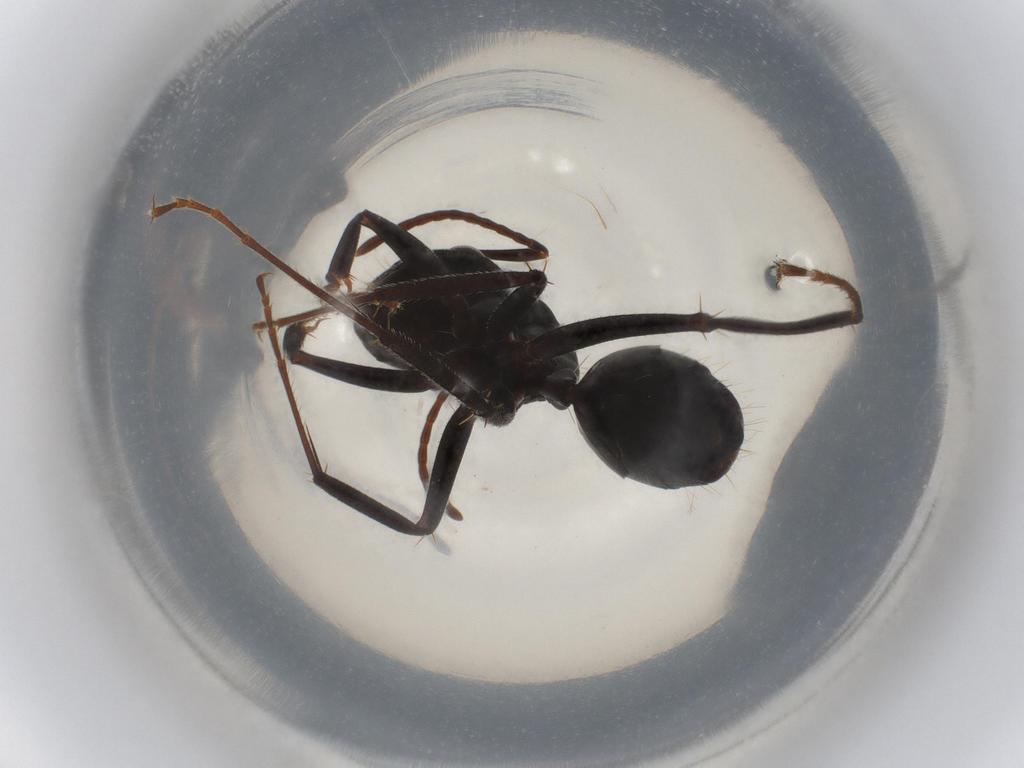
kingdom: Animalia
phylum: Arthropoda
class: Insecta
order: Hymenoptera
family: Formicidae
